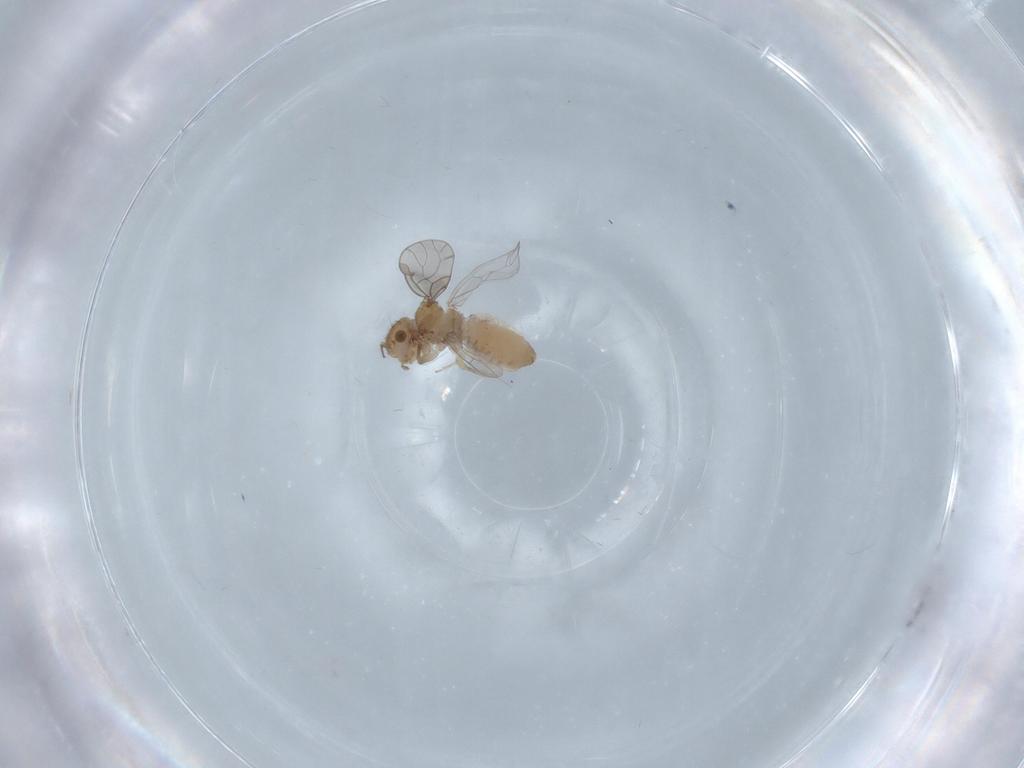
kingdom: Animalia
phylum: Arthropoda
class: Insecta
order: Psocodea
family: Ectopsocidae
